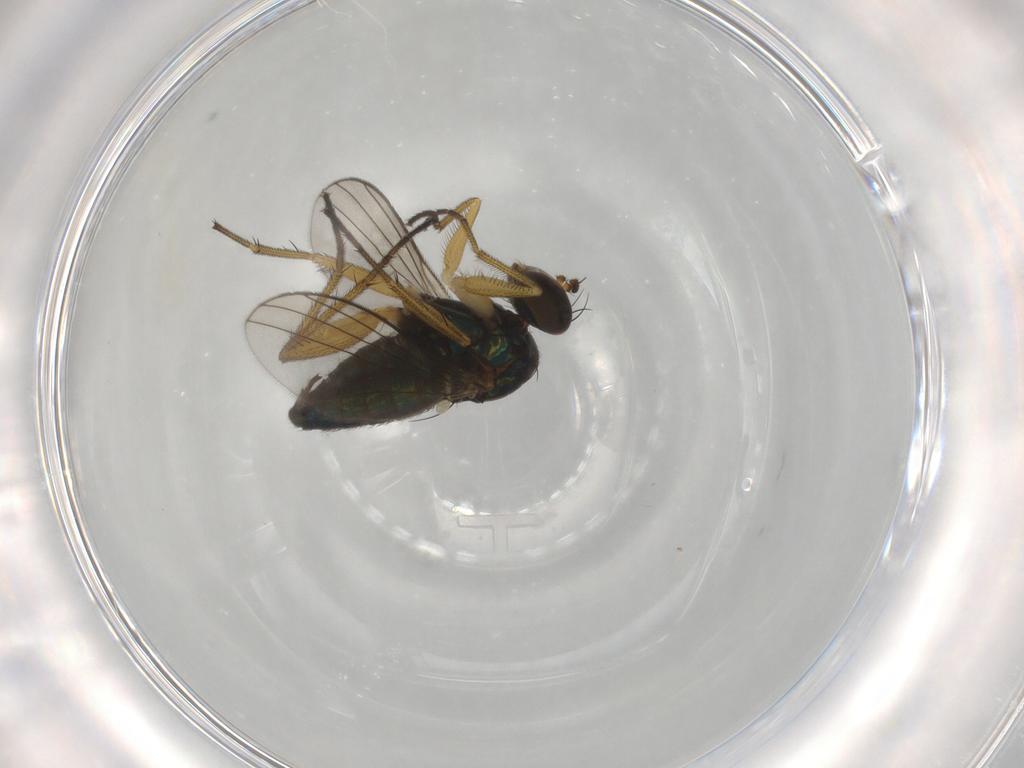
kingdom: Animalia
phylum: Arthropoda
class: Insecta
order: Diptera
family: Dolichopodidae
